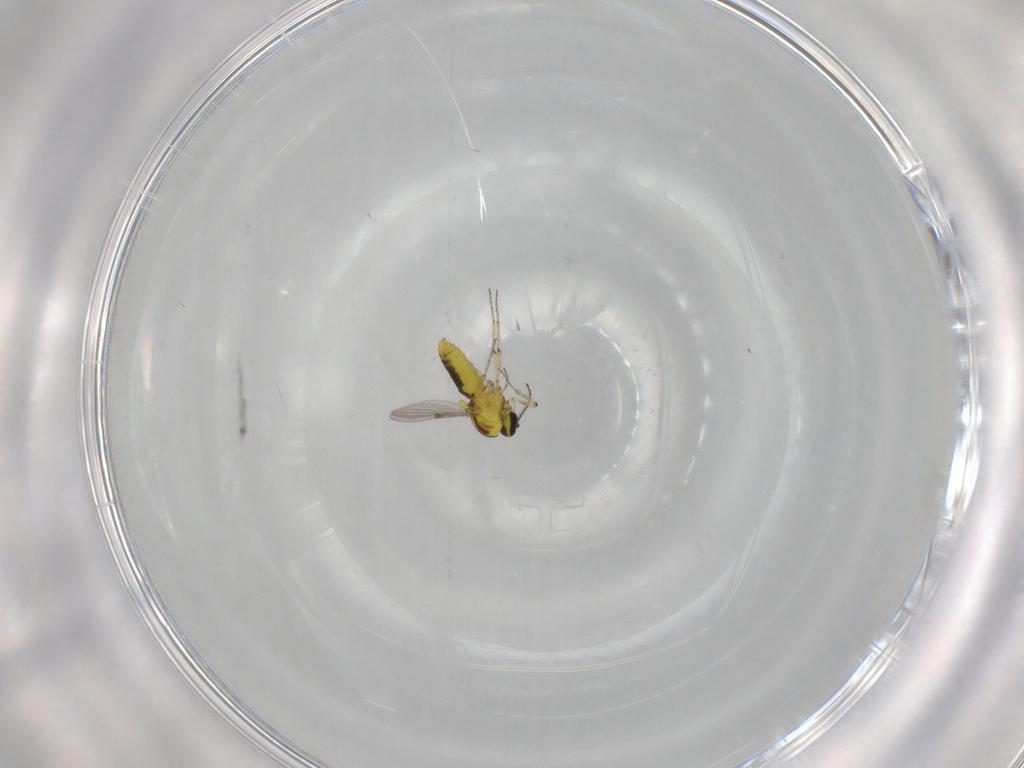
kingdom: Animalia
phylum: Arthropoda
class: Insecta
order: Diptera
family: Ceratopogonidae
